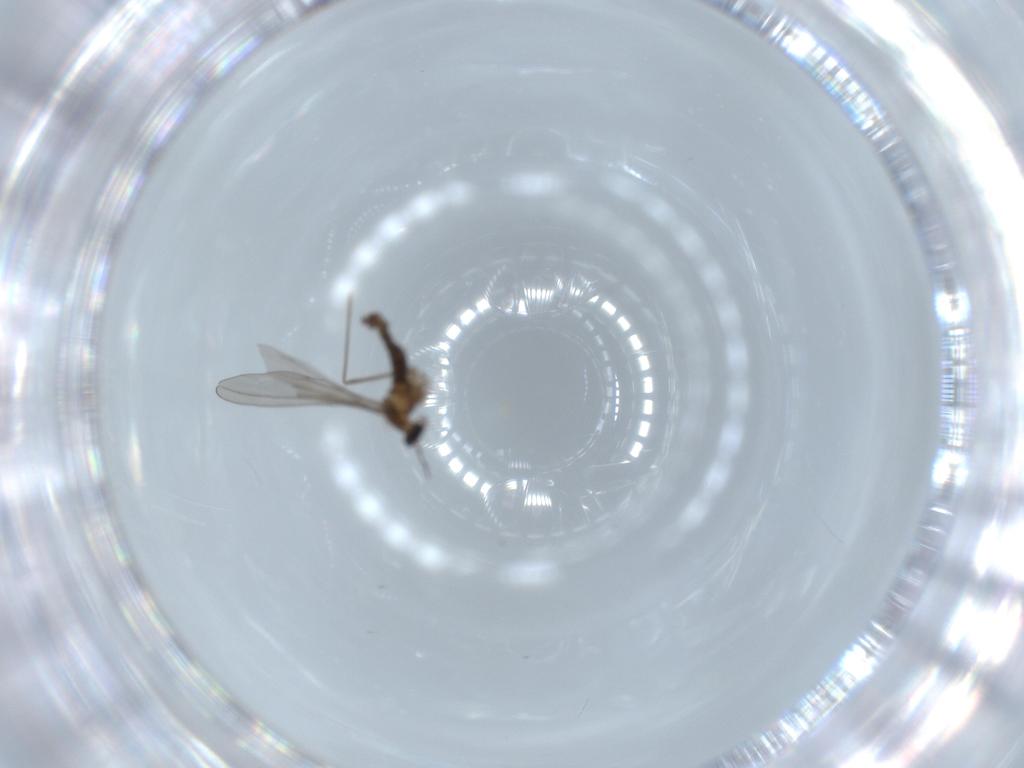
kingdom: Animalia
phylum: Arthropoda
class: Insecta
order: Diptera
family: Cecidomyiidae
